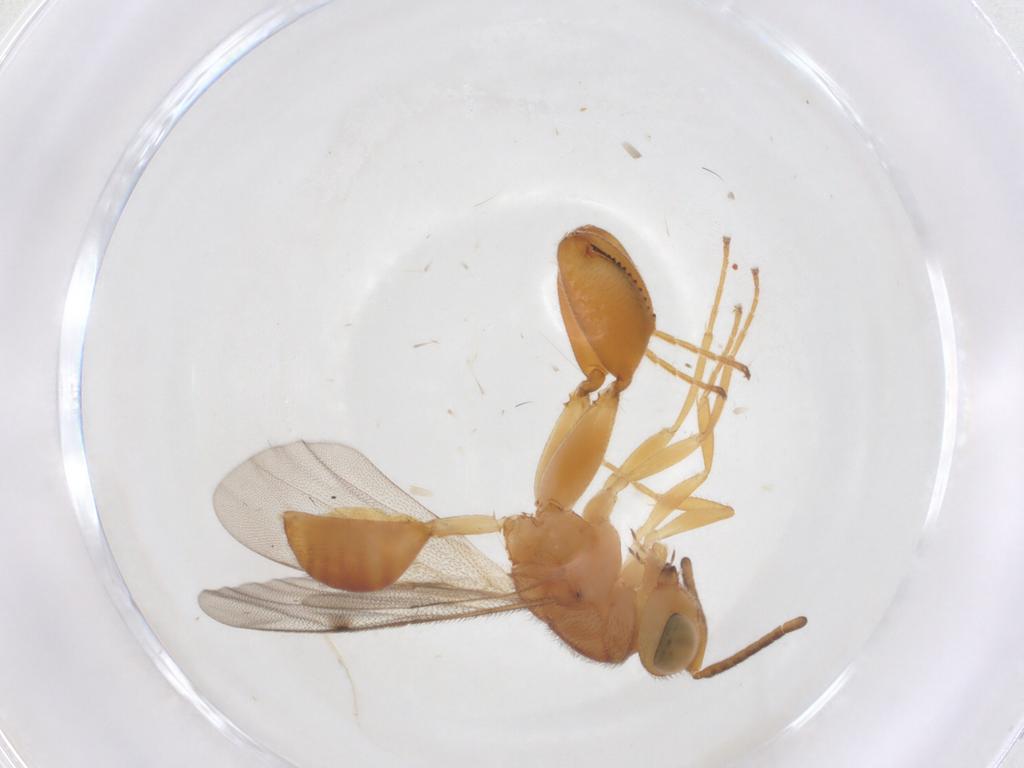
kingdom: Animalia
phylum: Arthropoda
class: Insecta
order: Hymenoptera
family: Chalcididae
